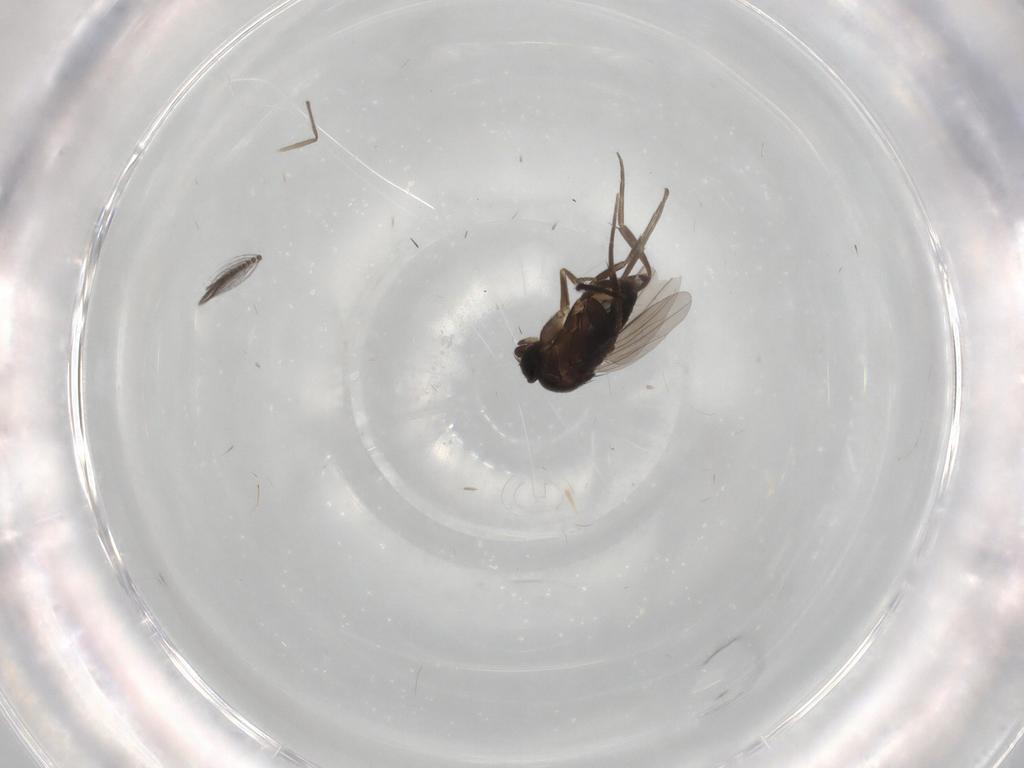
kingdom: Animalia
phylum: Arthropoda
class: Insecta
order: Diptera
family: Phoridae
